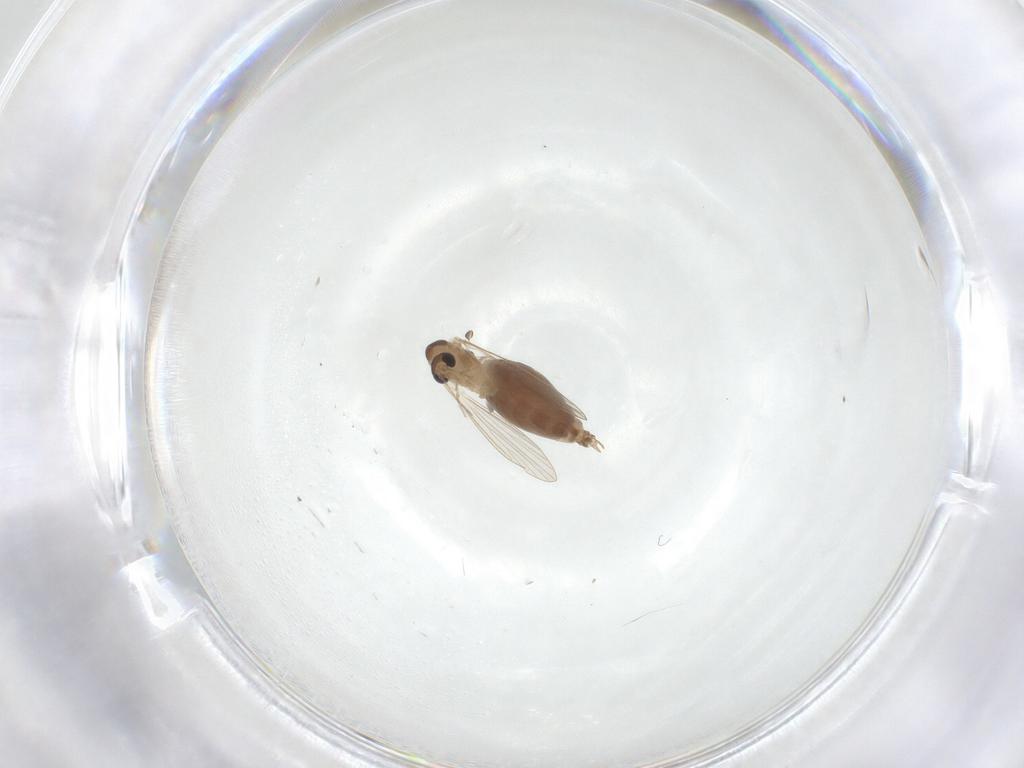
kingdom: Animalia
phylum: Arthropoda
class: Insecta
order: Diptera
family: Psychodidae
